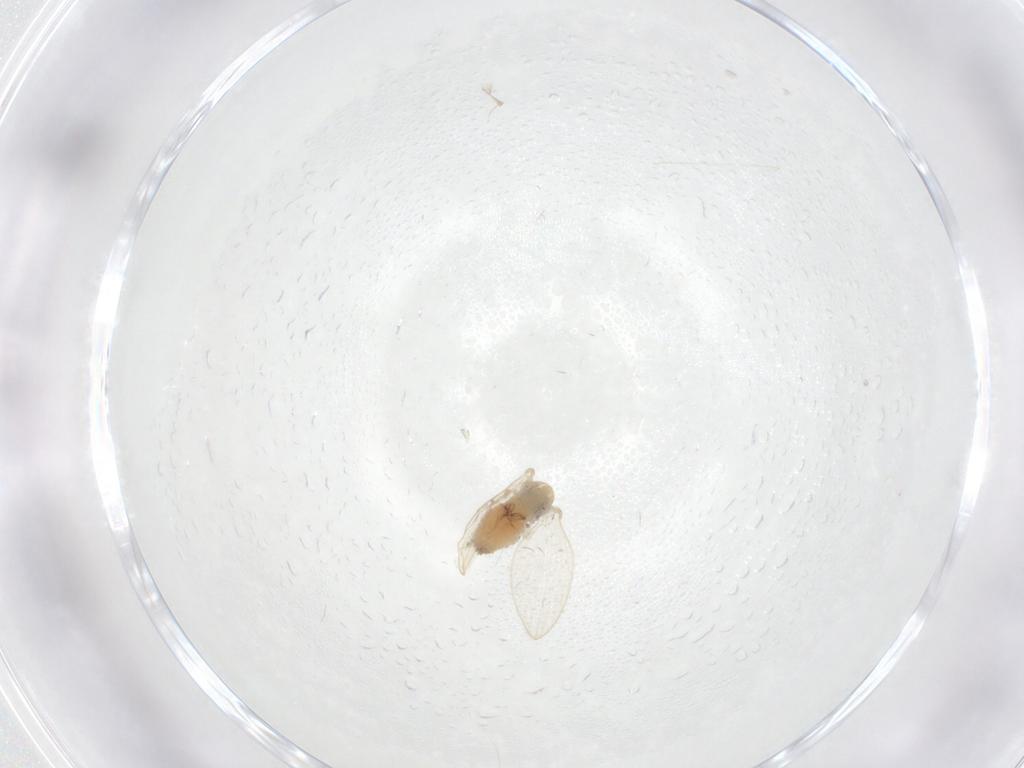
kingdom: Animalia
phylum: Arthropoda
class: Insecta
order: Diptera
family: Psychodidae
